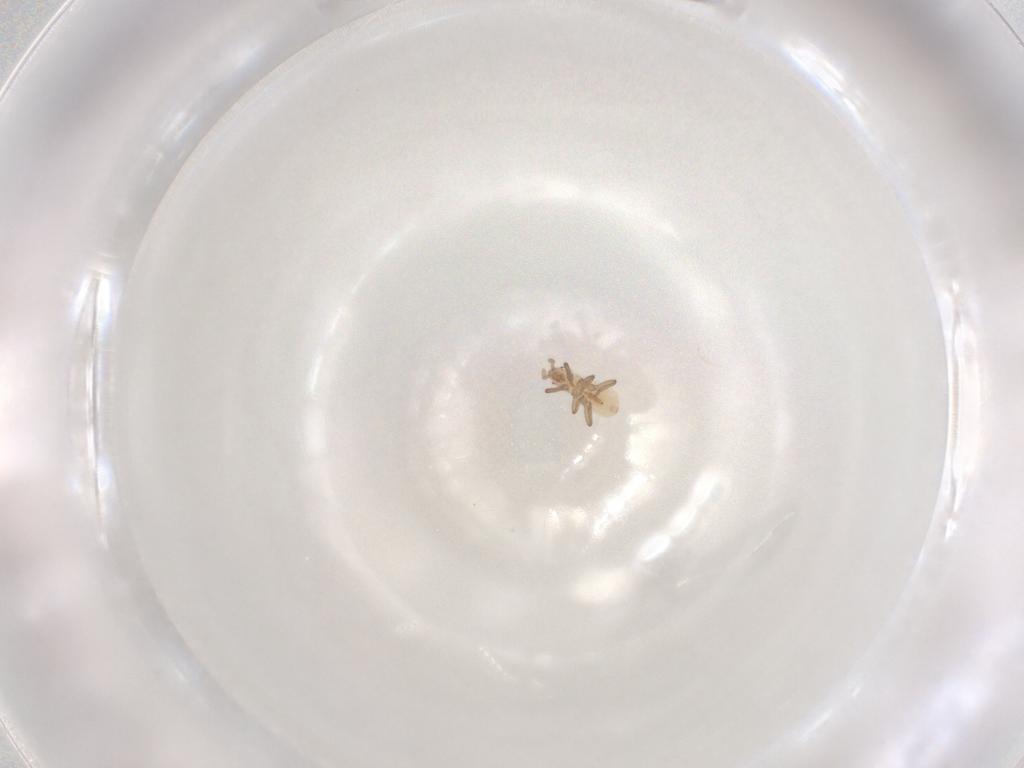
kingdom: Animalia
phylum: Arthropoda
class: Insecta
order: Hemiptera
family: Aphididae
